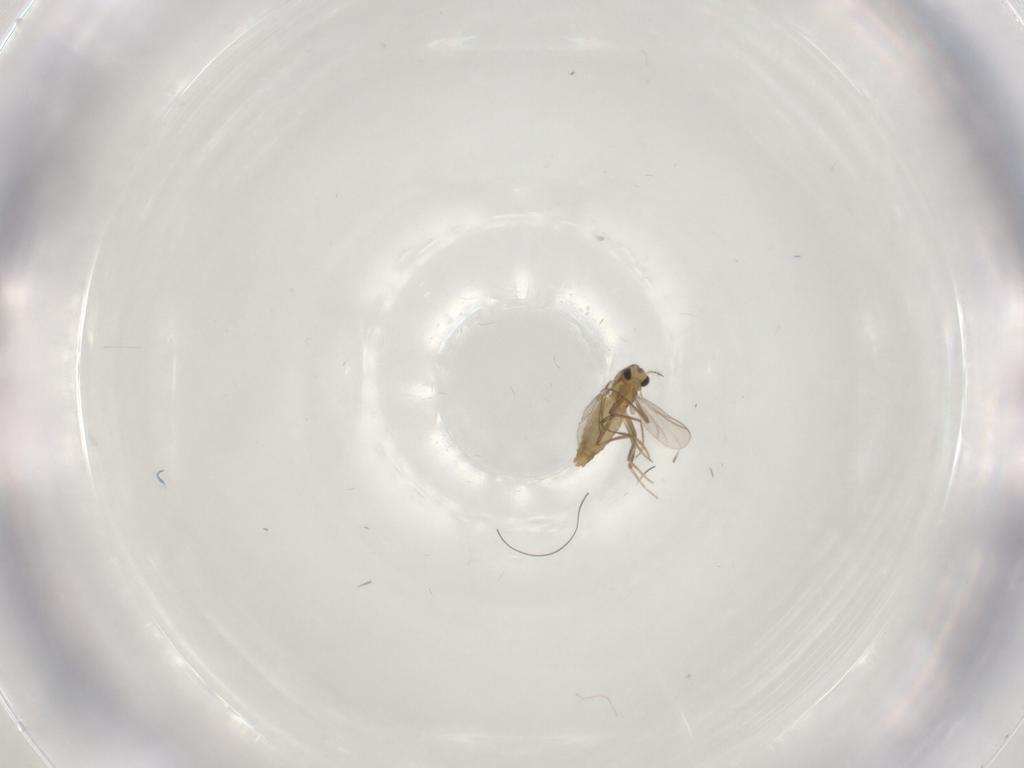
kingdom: Animalia
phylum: Arthropoda
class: Insecta
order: Diptera
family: Chironomidae
